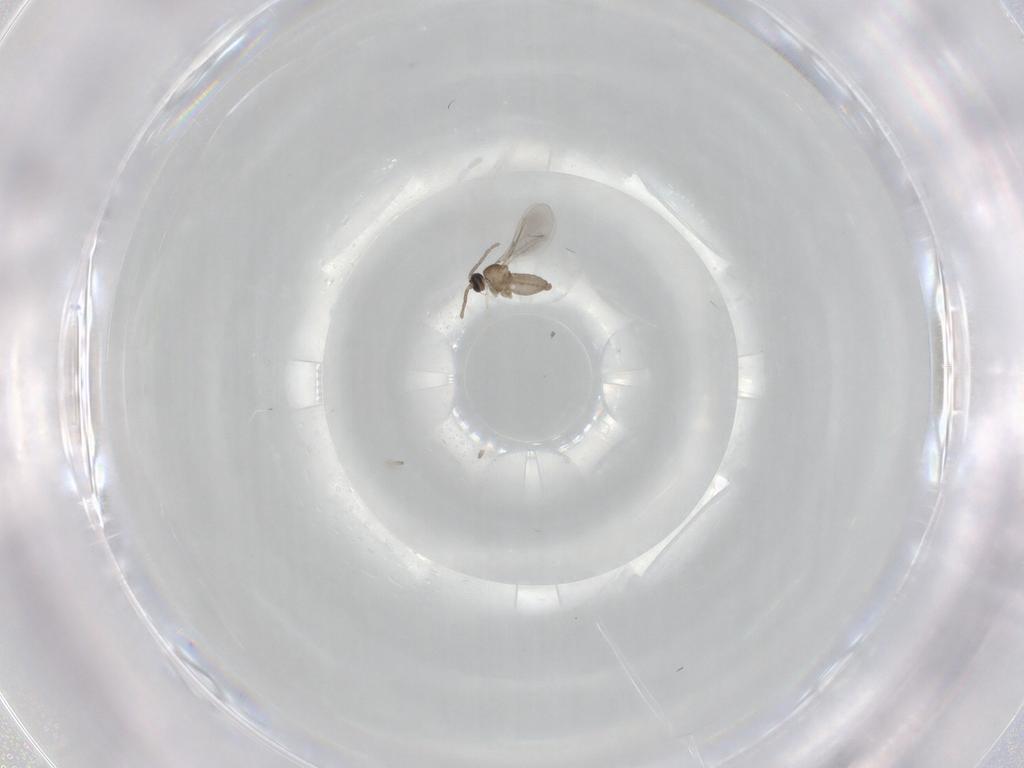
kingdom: Animalia
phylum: Arthropoda
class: Insecta
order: Diptera
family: Cecidomyiidae
